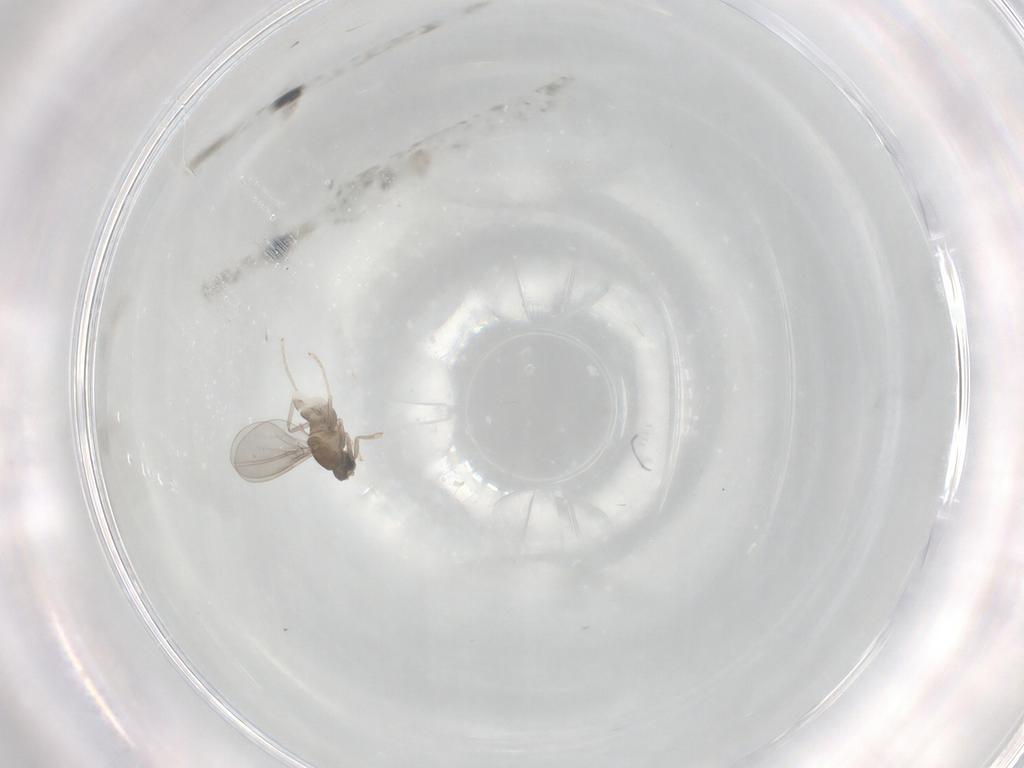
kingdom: Animalia
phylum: Arthropoda
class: Insecta
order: Diptera
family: Cecidomyiidae
